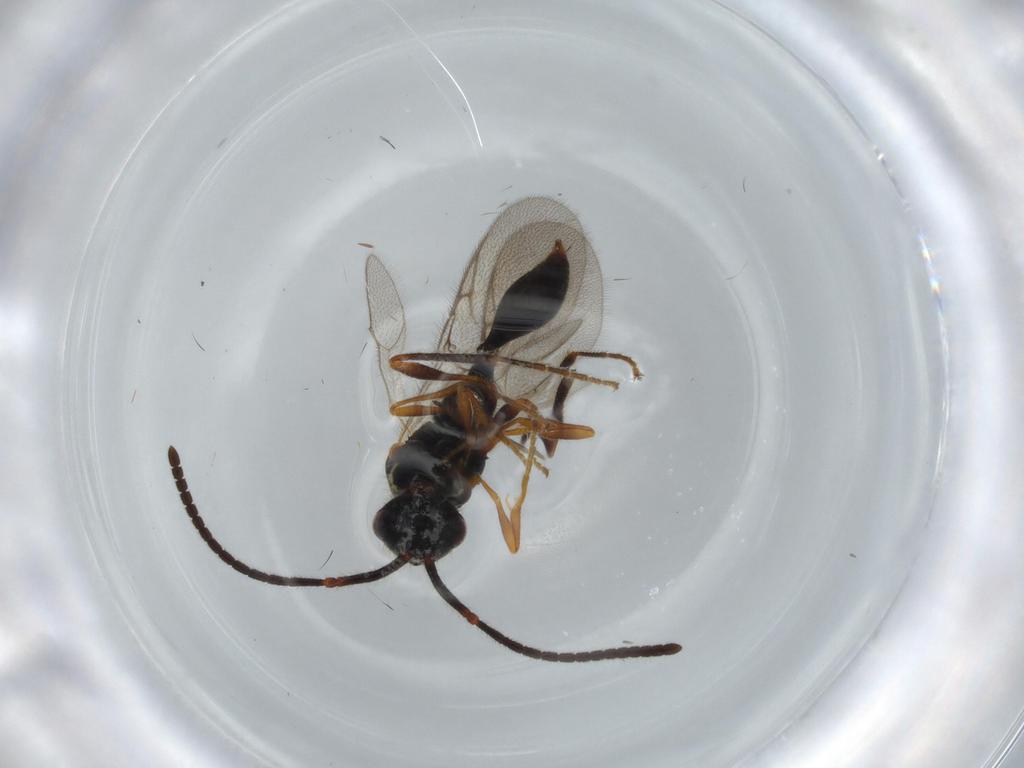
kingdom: Animalia
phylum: Arthropoda
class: Insecta
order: Hymenoptera
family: Diapriidae
